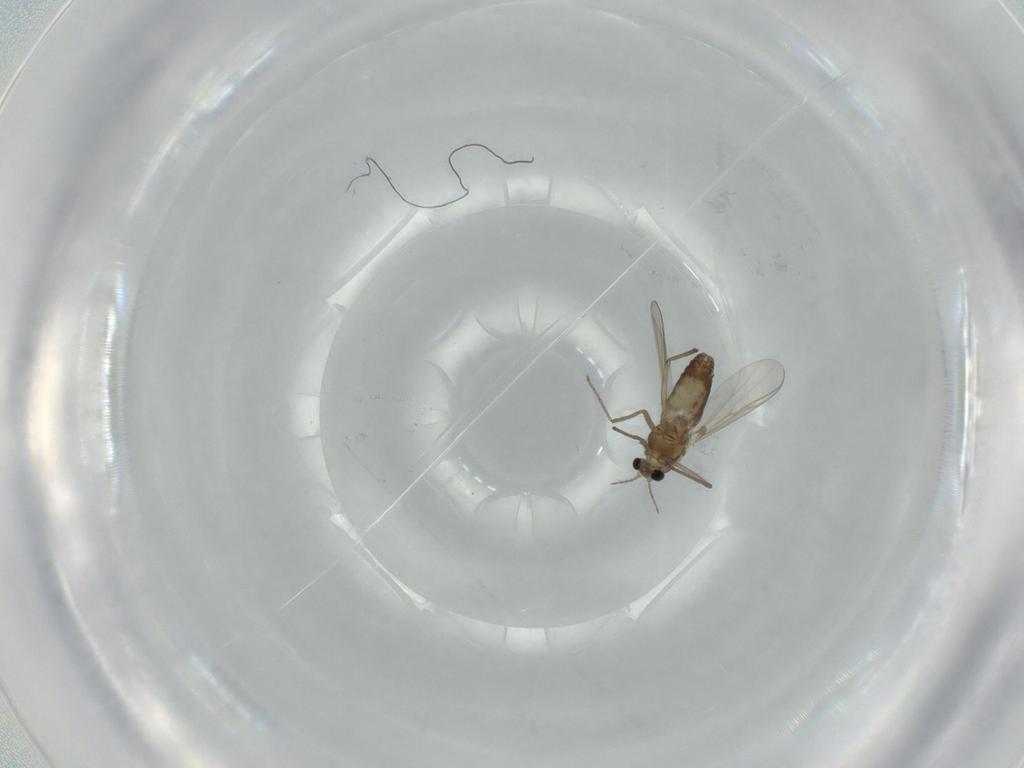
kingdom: Animalia
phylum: Arthropoda
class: Insecta
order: Diptera
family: Chironomidae
